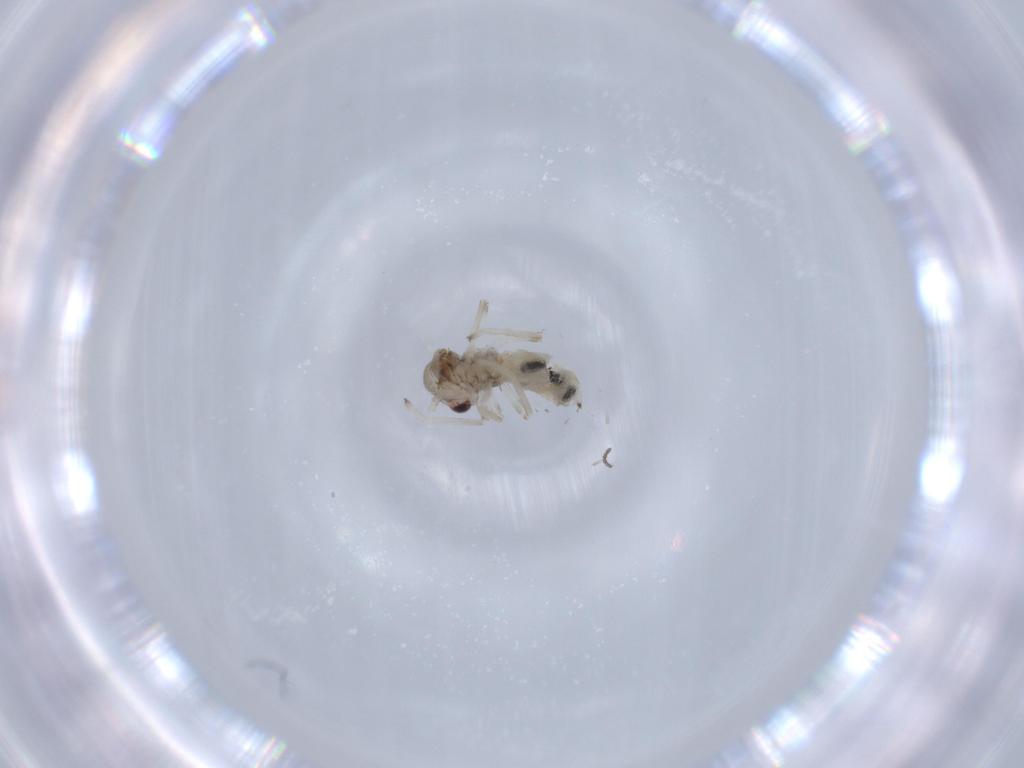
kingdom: Animalia
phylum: Arthropoda
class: Insecta
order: Diptera
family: Sciaridae
